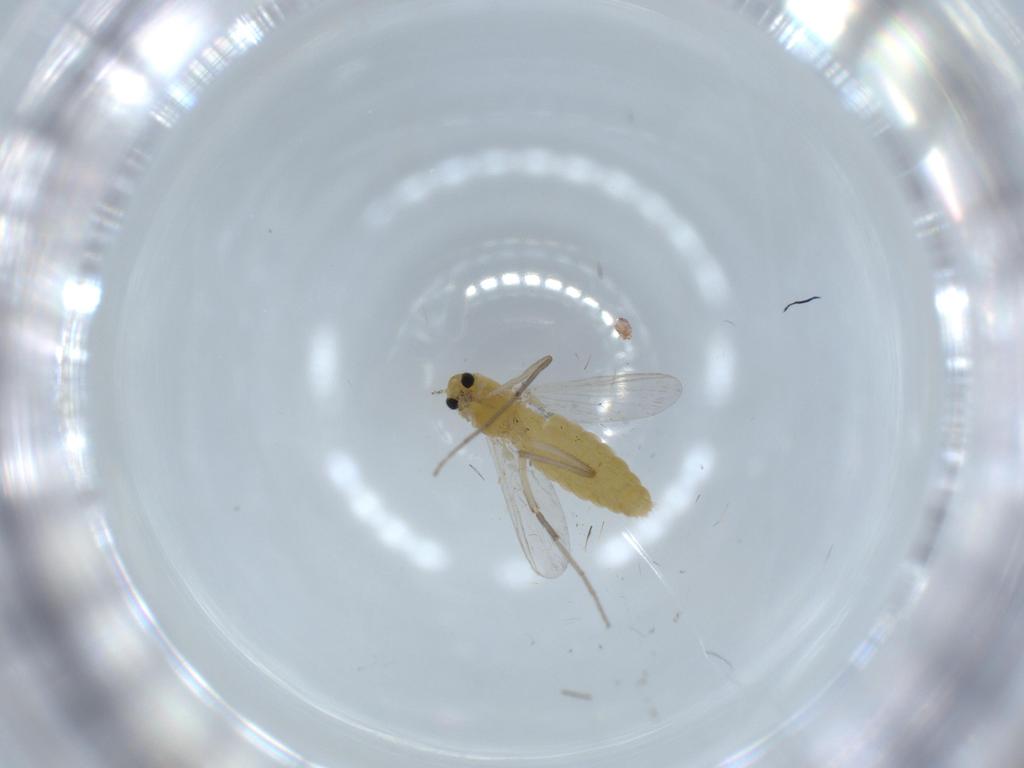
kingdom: Animalia
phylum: Arthropoda
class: Insecta
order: Diptera
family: Chironomidae
